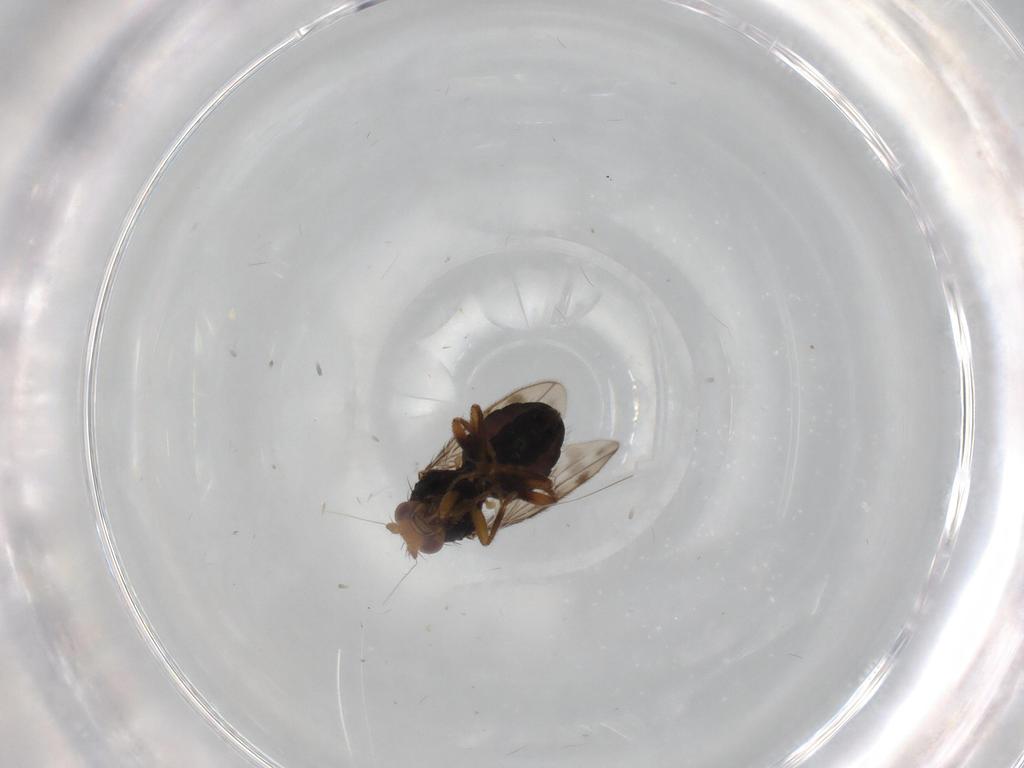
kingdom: Animalia
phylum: Arthropoda
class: Insecta
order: Diptera
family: Sphaeroceridae
